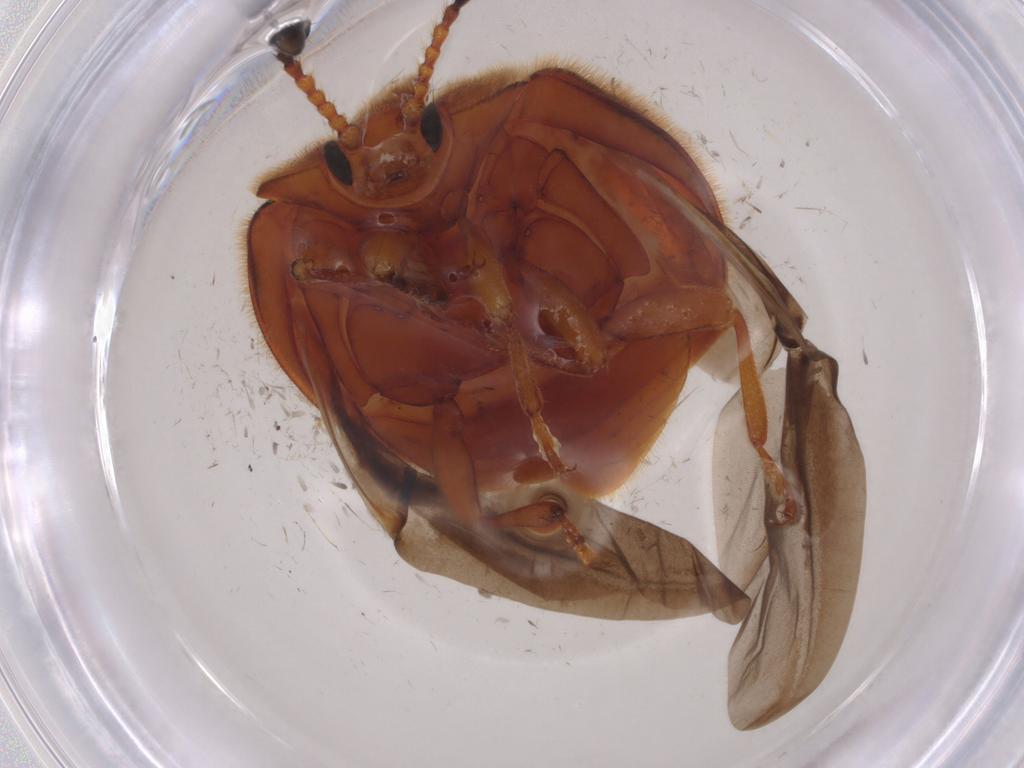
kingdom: Animalia
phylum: Arthropoda
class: Insecta
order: Coleoptera
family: Endomychidae
